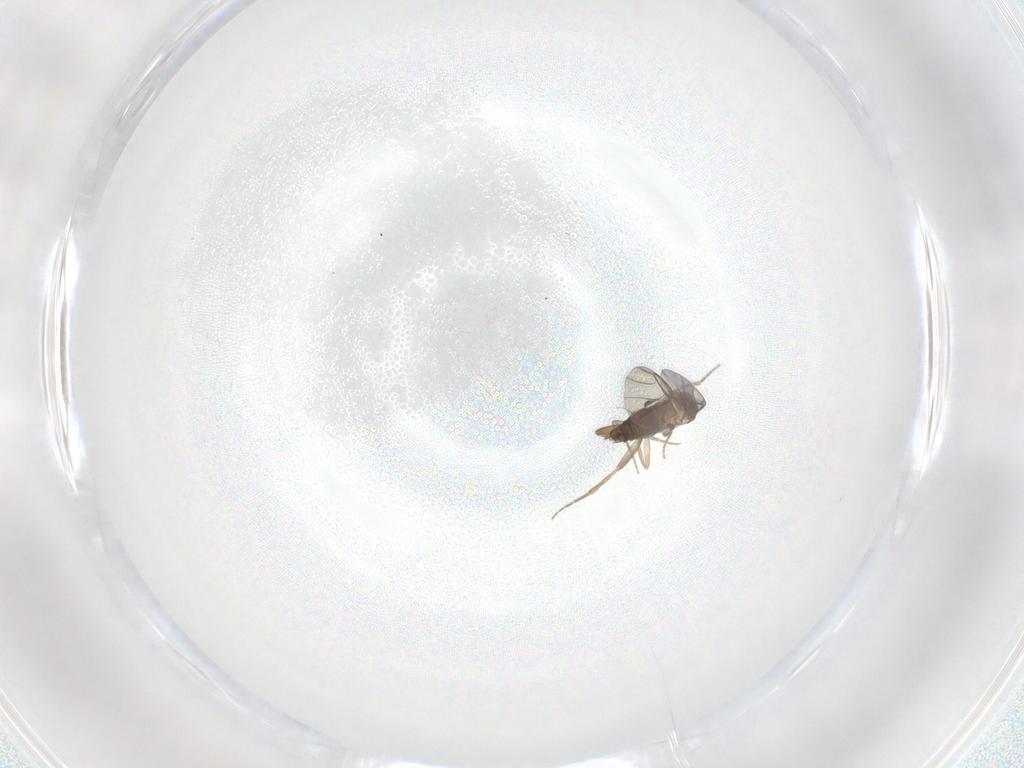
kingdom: Animalia
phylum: Arthropoda
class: Insecta
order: Diptera
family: Phoridae
